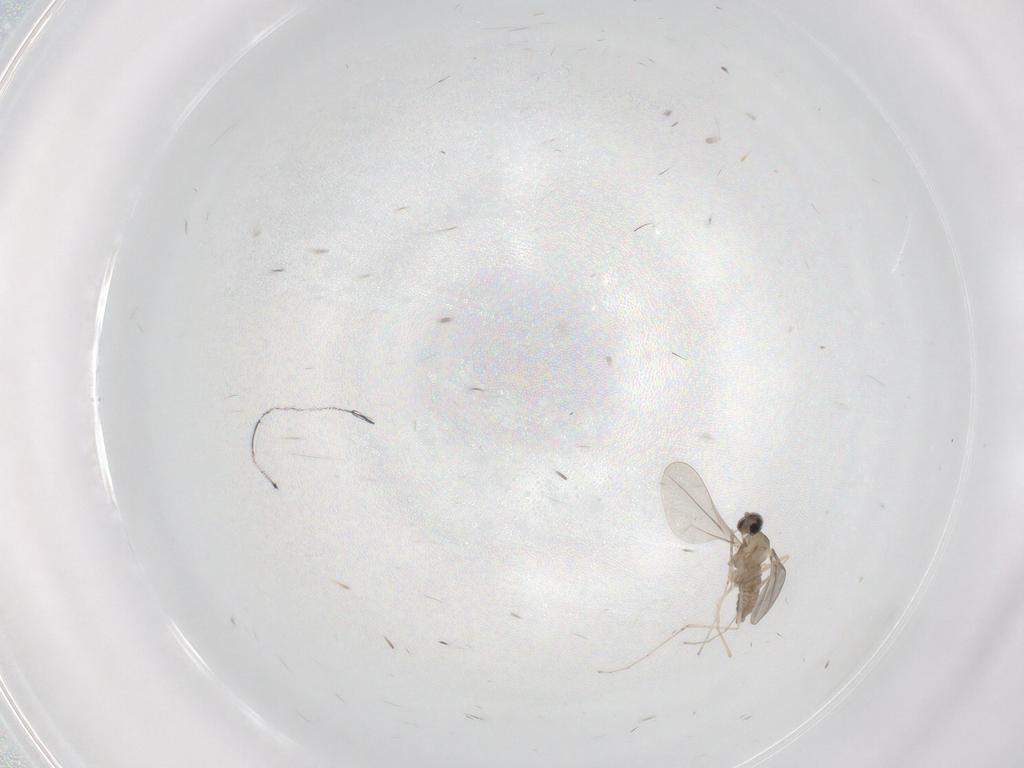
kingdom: Animalia
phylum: Arthropoda
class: Insecta
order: Diptera
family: Cecidomyiidae
